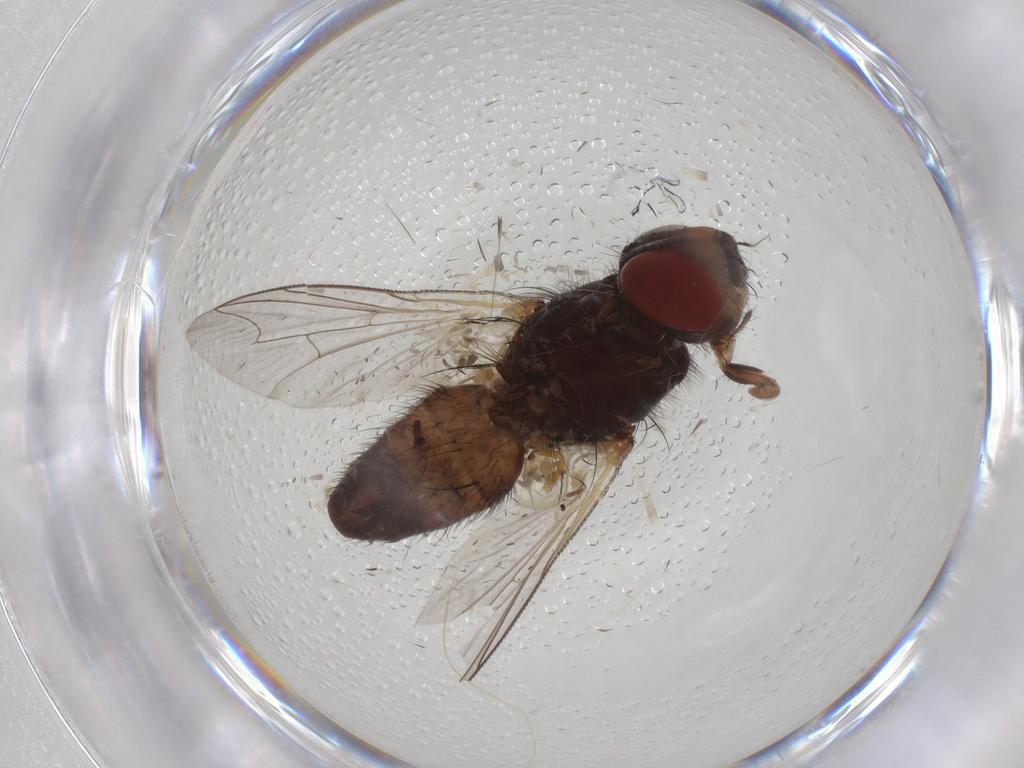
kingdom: Animalia
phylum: Arthropoda
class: Insecta
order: Diptera
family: Sarcophagidae
